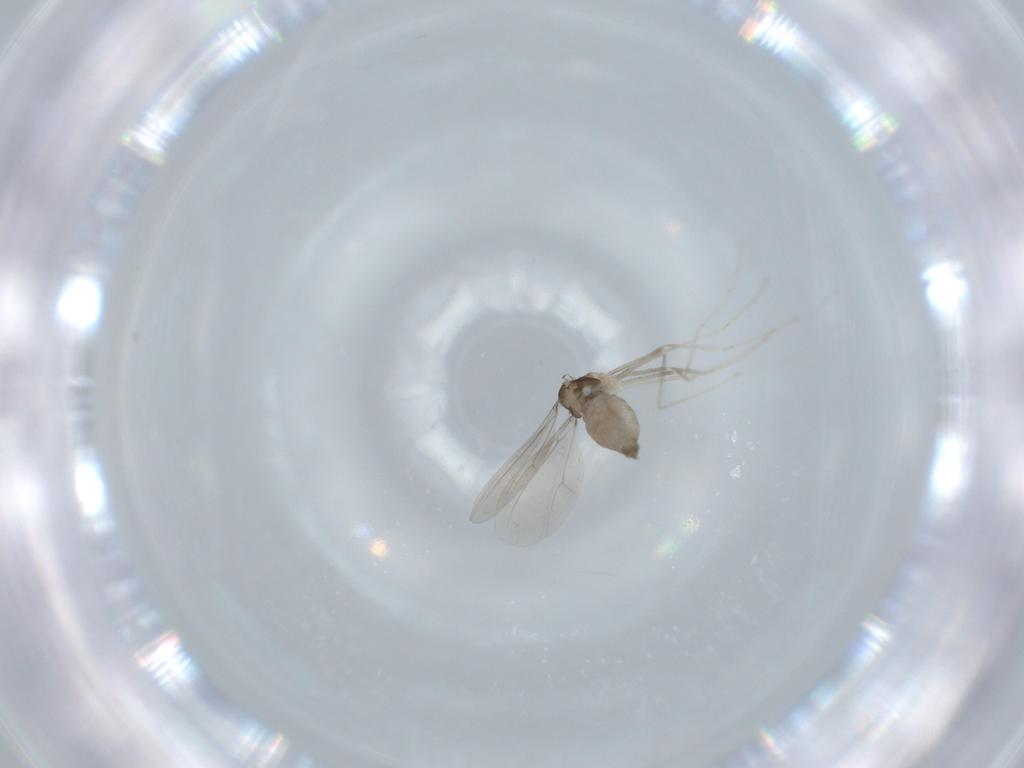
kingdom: Animalia
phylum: Arthropoda
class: Insecta
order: Diptera
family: Cecidomyiidae
